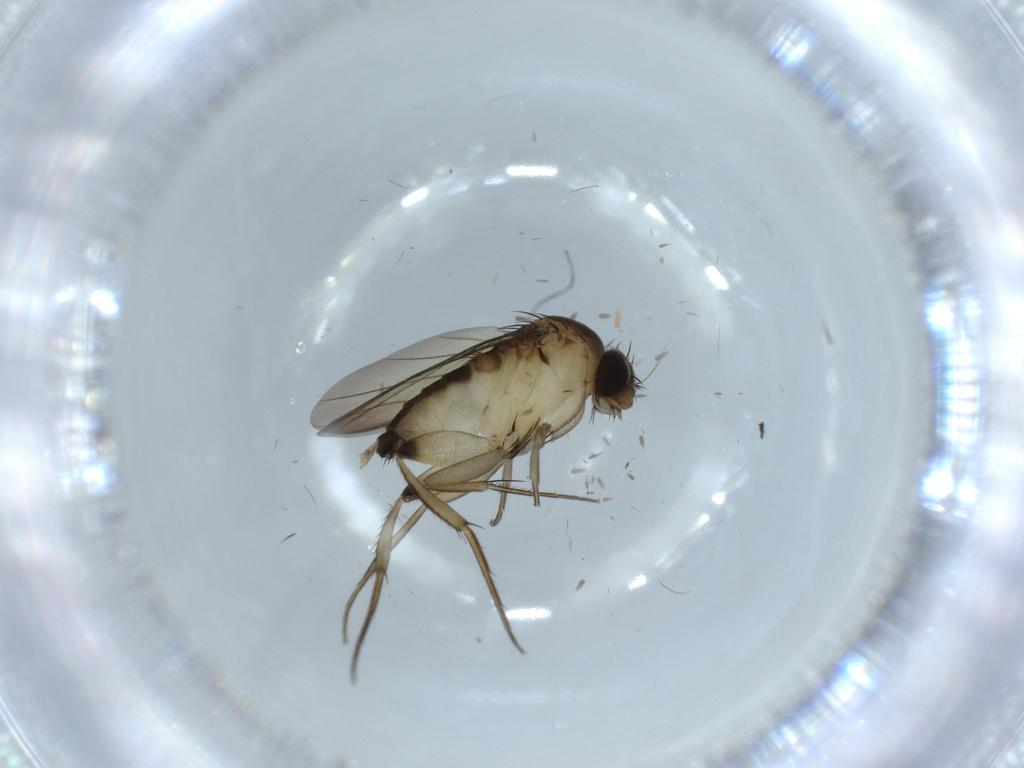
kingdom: Animalia
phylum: Arthropoda
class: Insecta
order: Diptera
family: Phoridae
